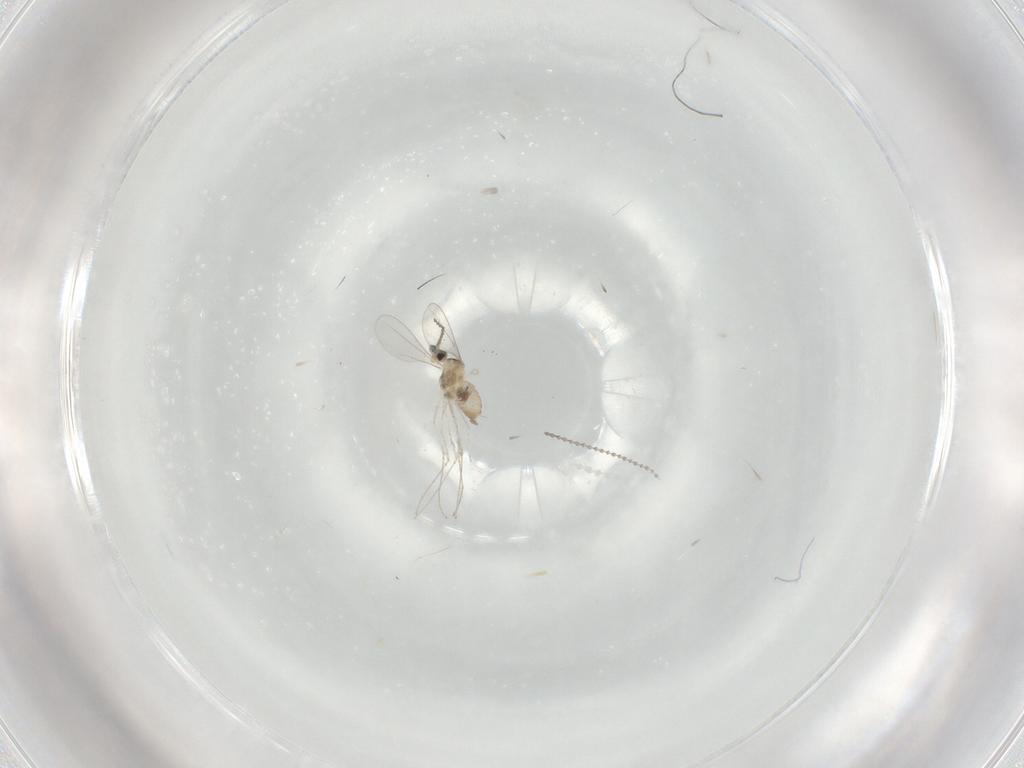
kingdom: Animalia
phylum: Arthropoda
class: Insecta
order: Diptera
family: Cecidomyiidae
